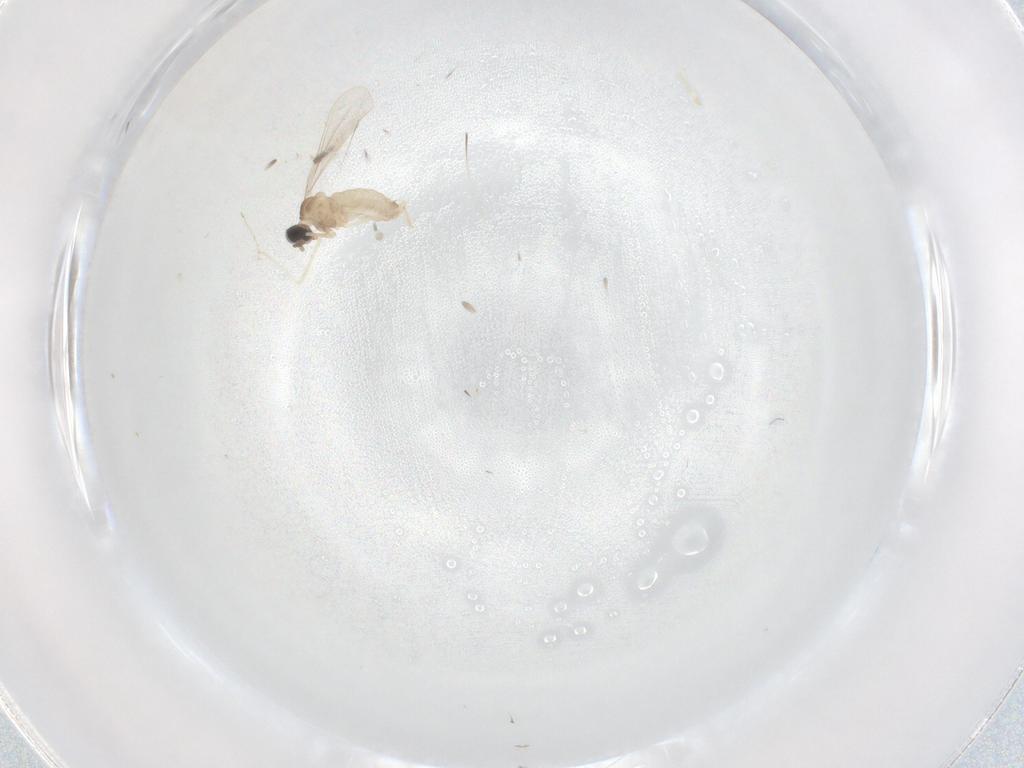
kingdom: Animalia
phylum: Arthropoda
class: Insecta
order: Diptera
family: Cecidomyiidae
